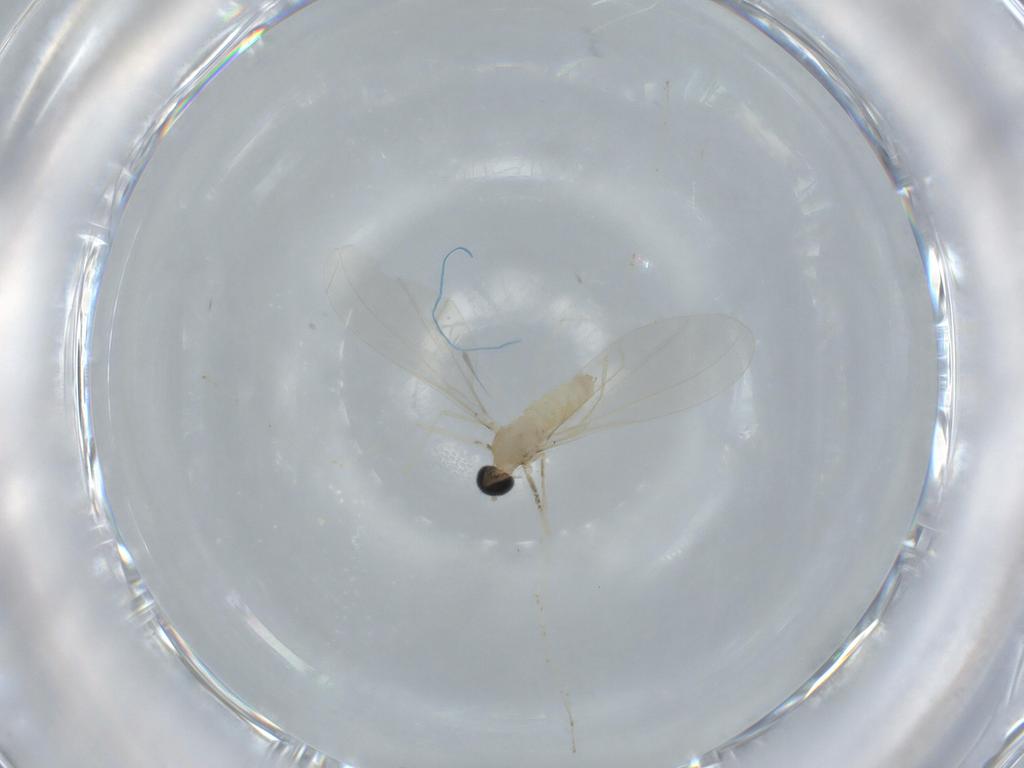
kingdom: Animalia
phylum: Arthropoda
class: Insecta
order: Diptera
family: Cecidomyiidae
